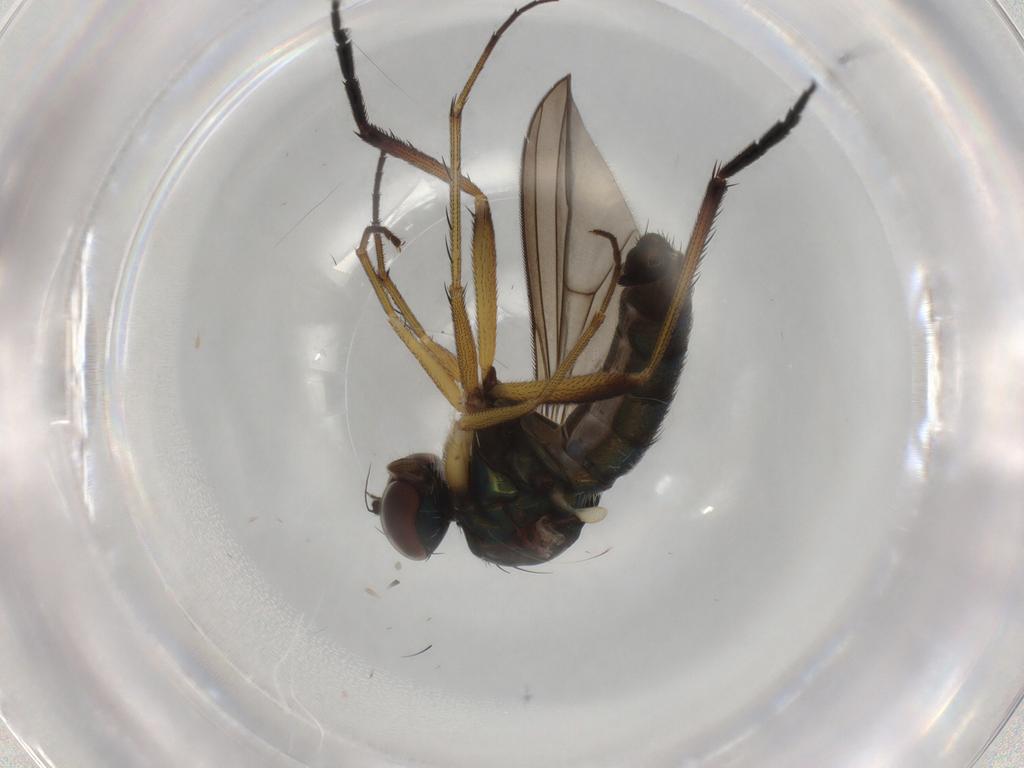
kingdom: Animalia
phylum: Arthropoda
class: Insecta
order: Diptera
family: Dolichopodidae
